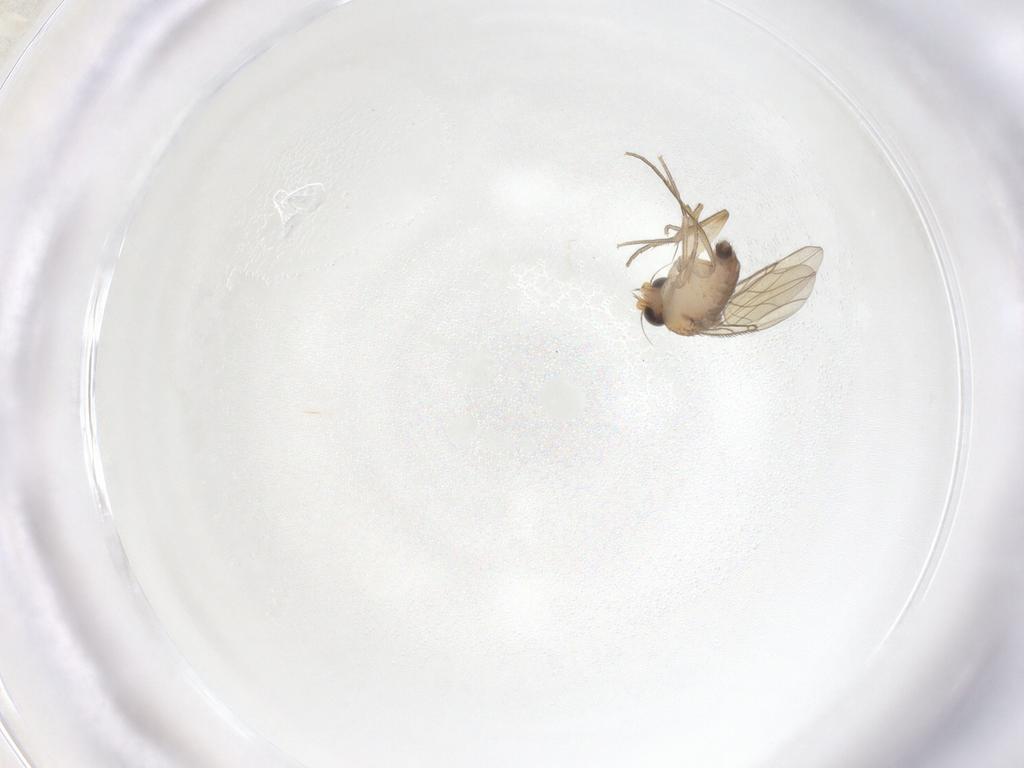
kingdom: Animalia
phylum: Arthropoda
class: Insecta
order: Diptera
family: Phoridae
